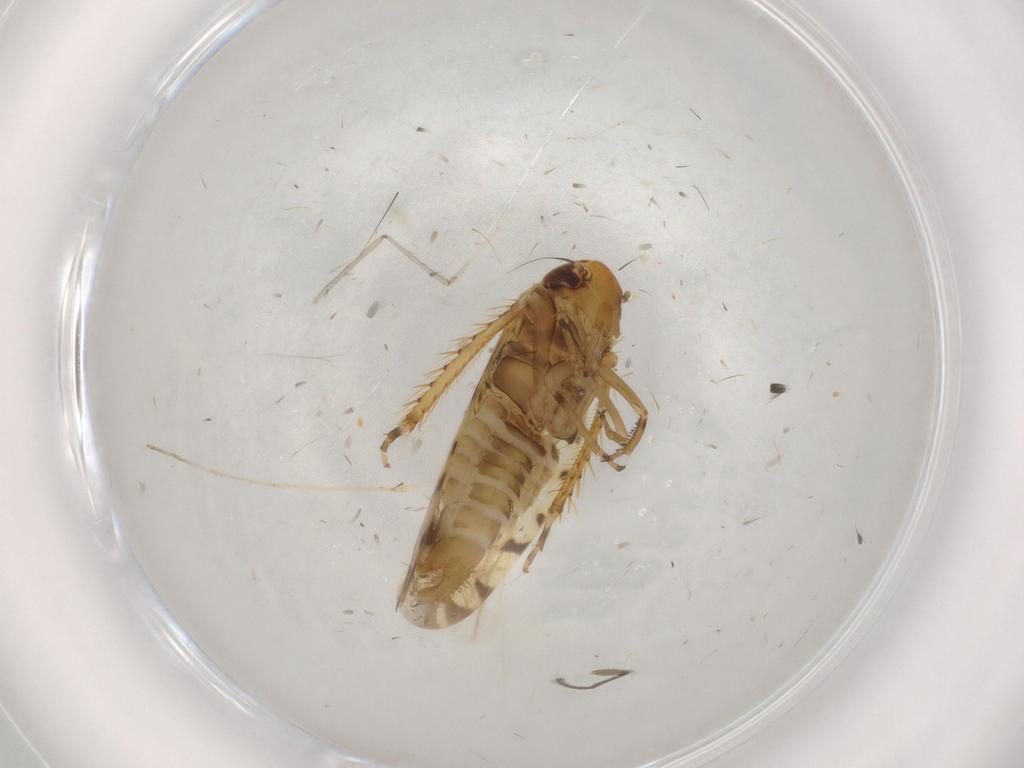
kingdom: Animalia
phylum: Arthropoda
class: Insecta
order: Hemiptera
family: Cicadellidae
